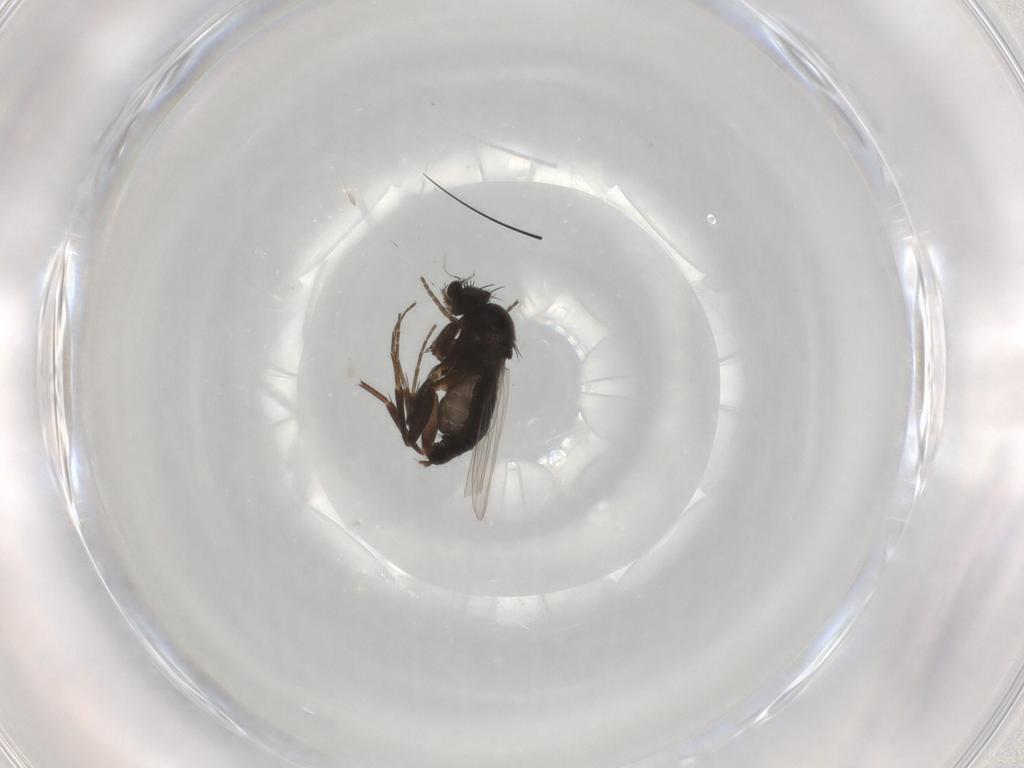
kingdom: Animalia
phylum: Arthropoda
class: Insecta
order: Diptera
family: Phoridae
